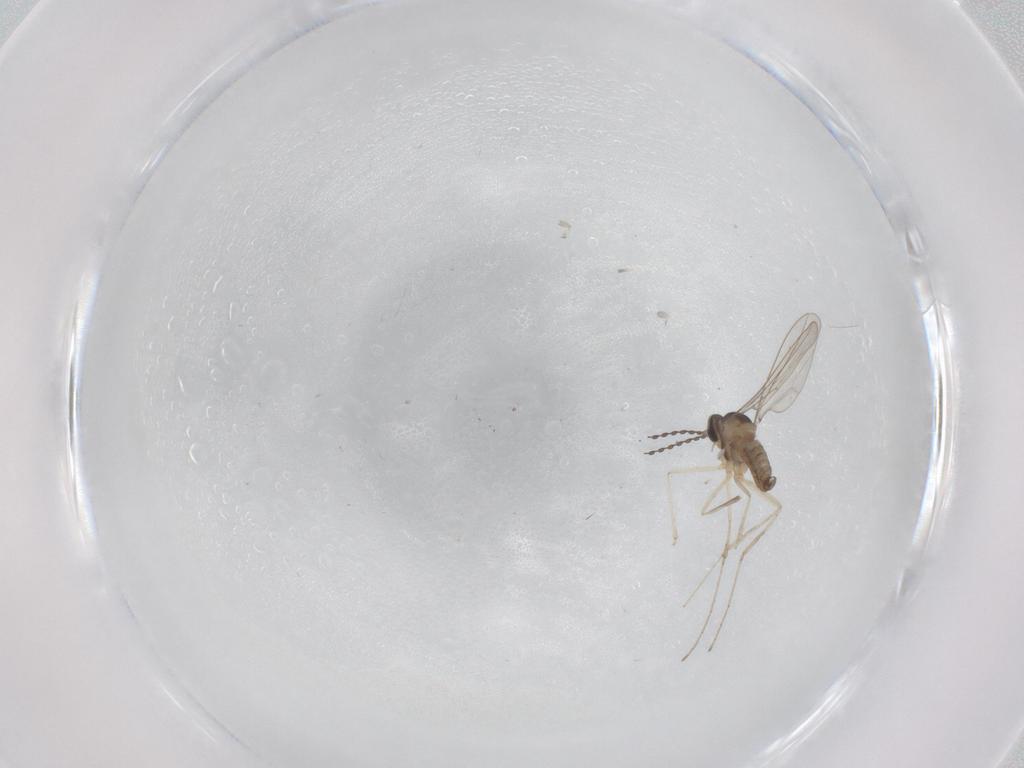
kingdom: Animalia
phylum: Arthropoda
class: Insecta
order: Diptera
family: Cecidomyiidae
